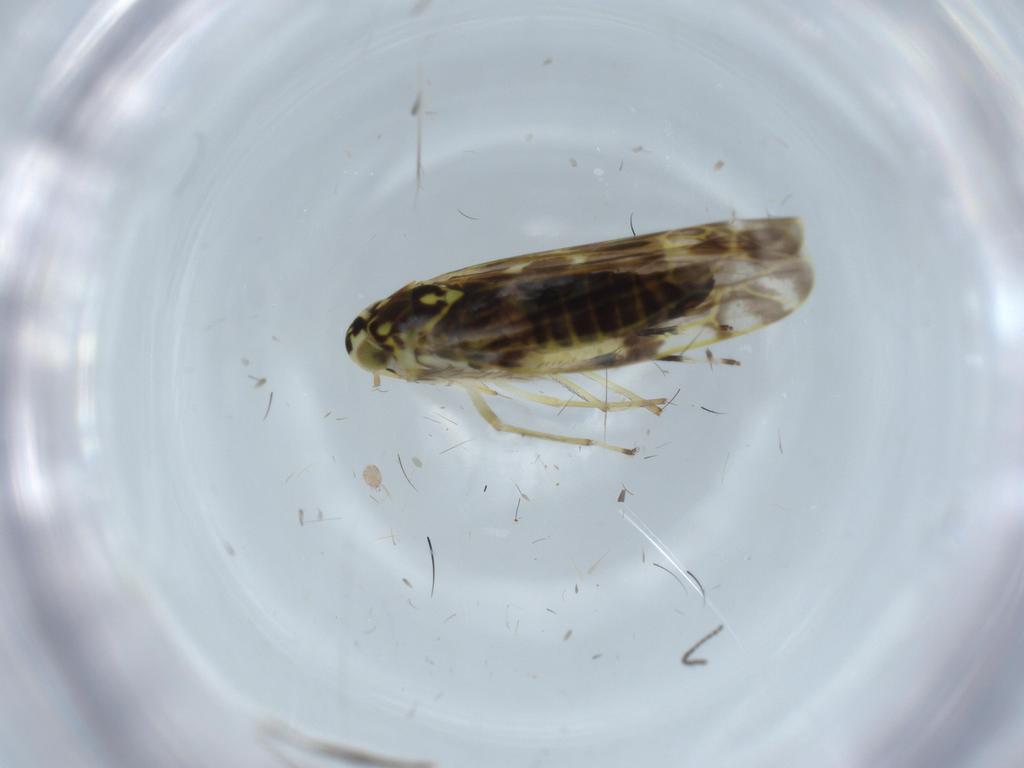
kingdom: Animalia
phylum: Arthropoda
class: Insecta
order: Hemiptera
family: Cicadellidae
